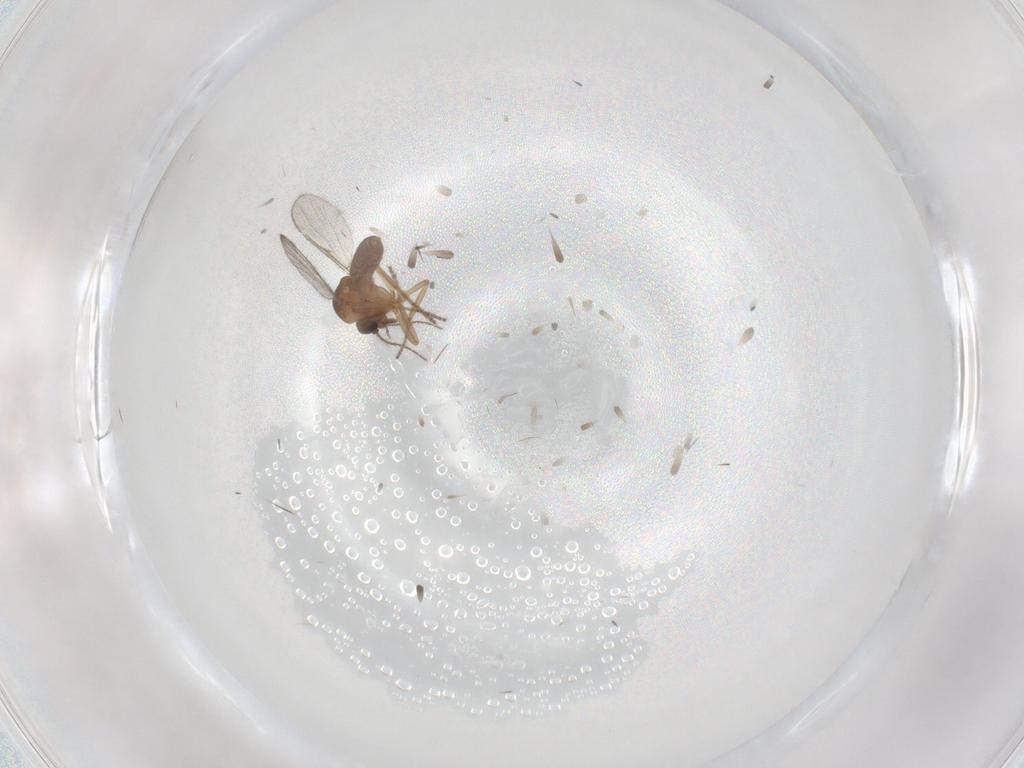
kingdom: Animalia
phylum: Arthropoda
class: Insecta
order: Diptera
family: Ceratopogonidae
